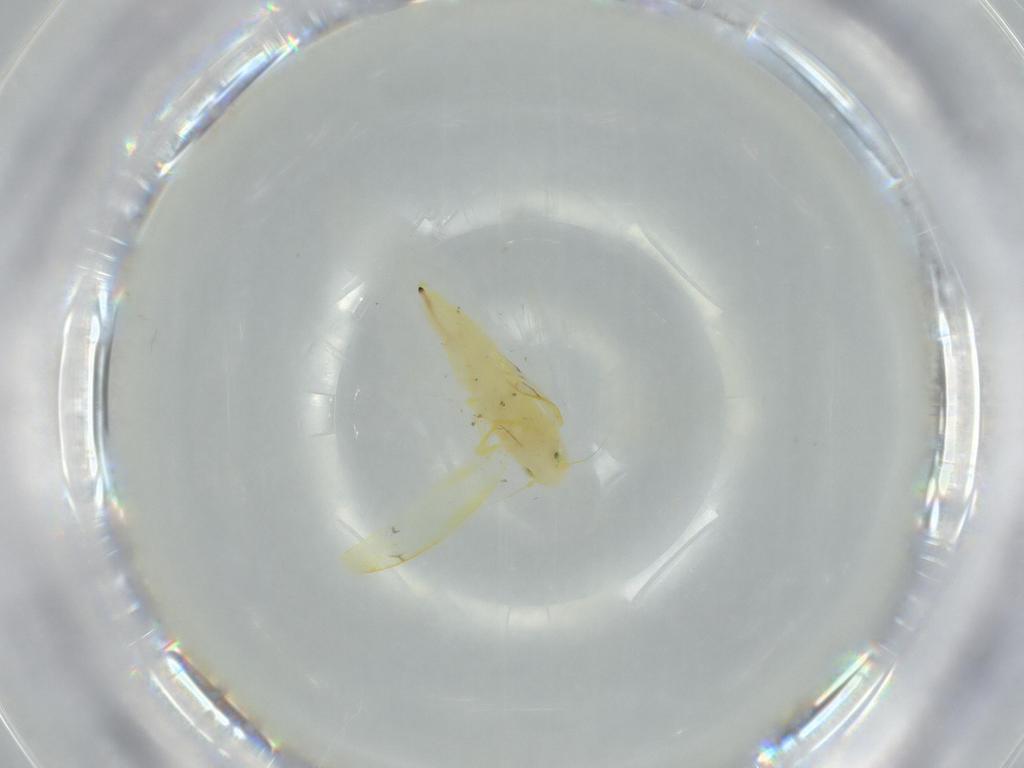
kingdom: Animalia
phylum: Arthropoda
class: Insecta
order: Hemiptera
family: Cicadellidae
